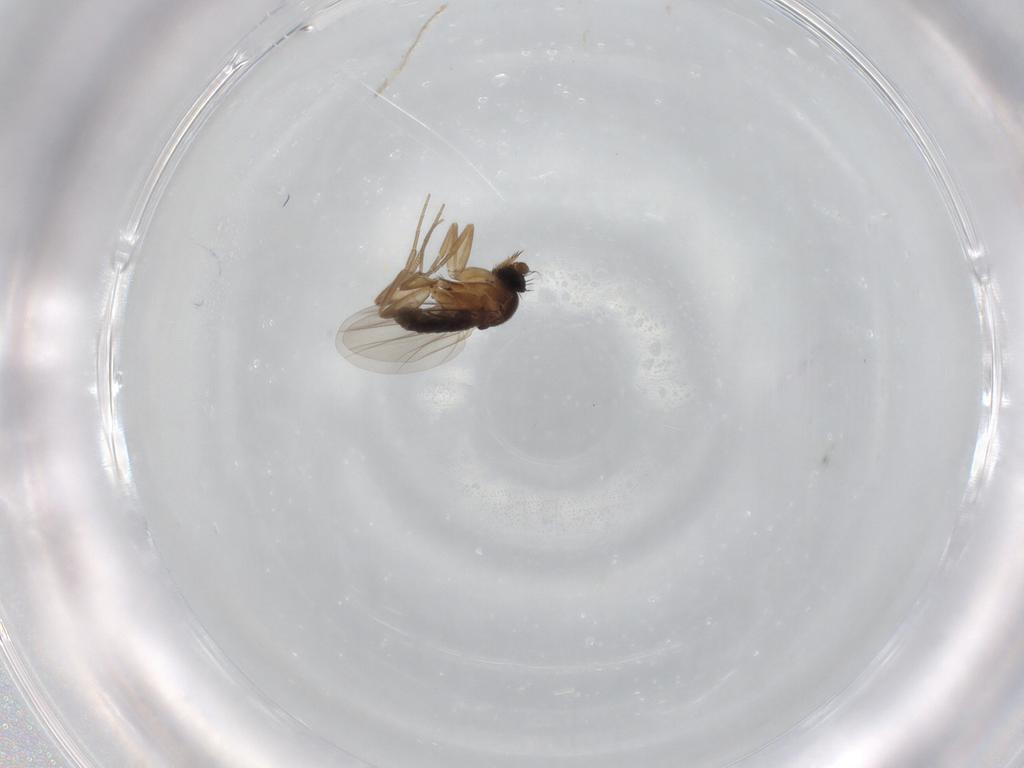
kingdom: Animalia
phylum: Arthropoda
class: Insecta
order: Diptera
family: Phoridae
